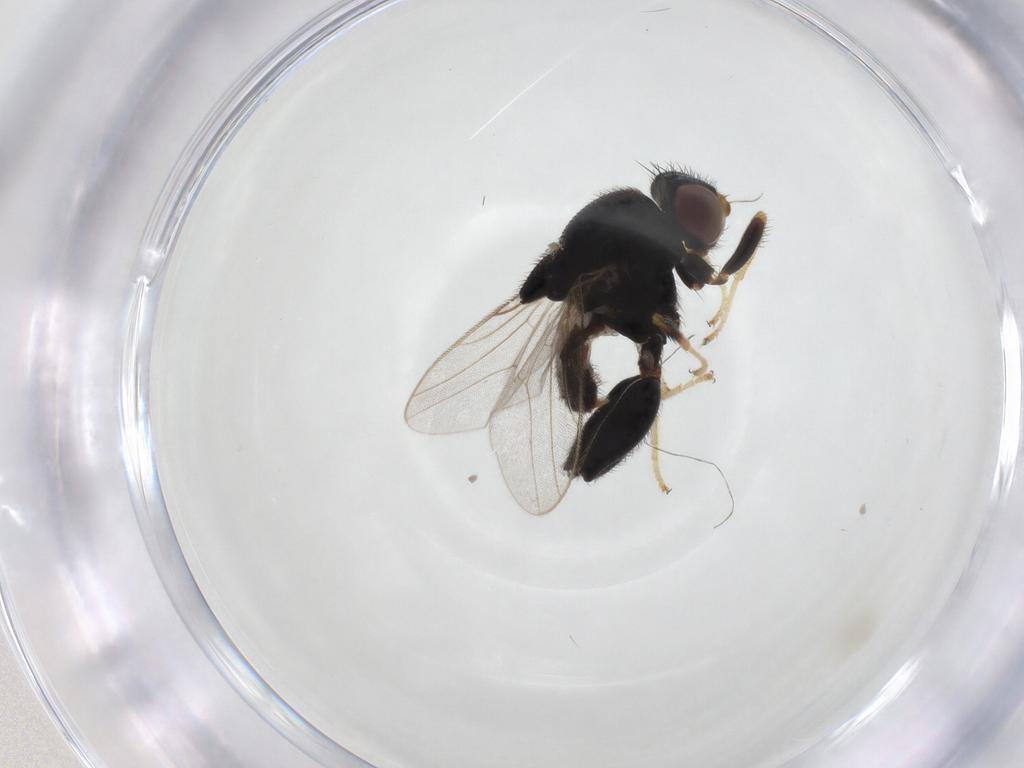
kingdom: Animalia
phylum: Arthropoda
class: Insecta
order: Diptera
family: Chloropidae
